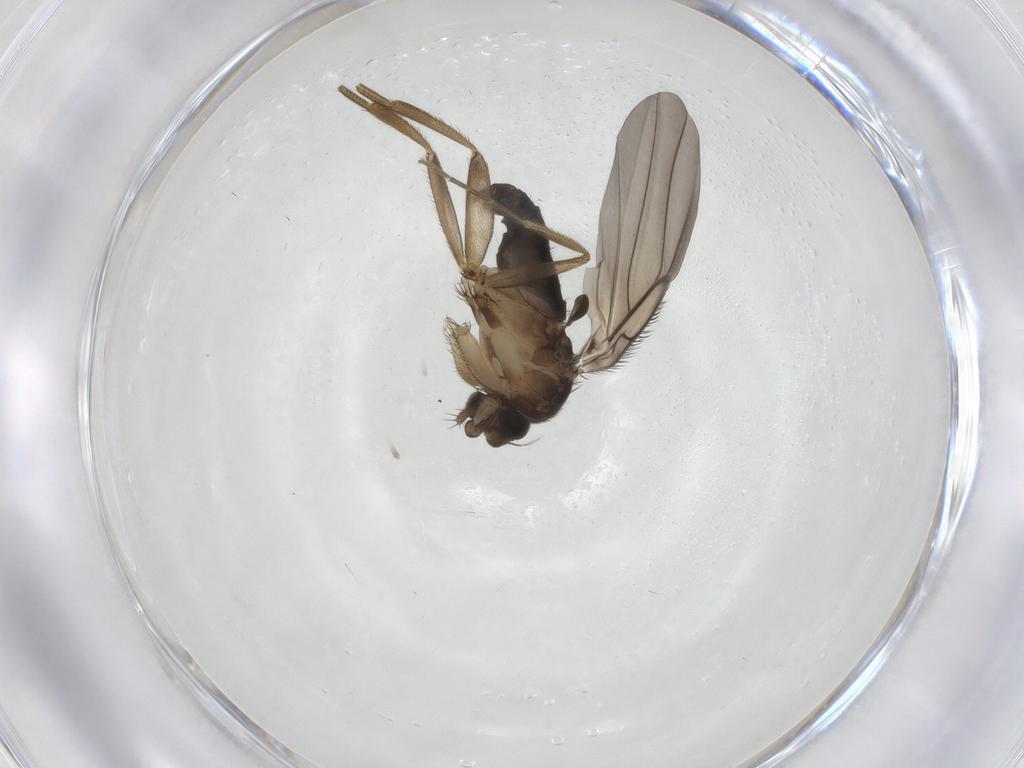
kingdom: Animalia
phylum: Arthropoda
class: Insecta
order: Diptera
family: Phoridae
